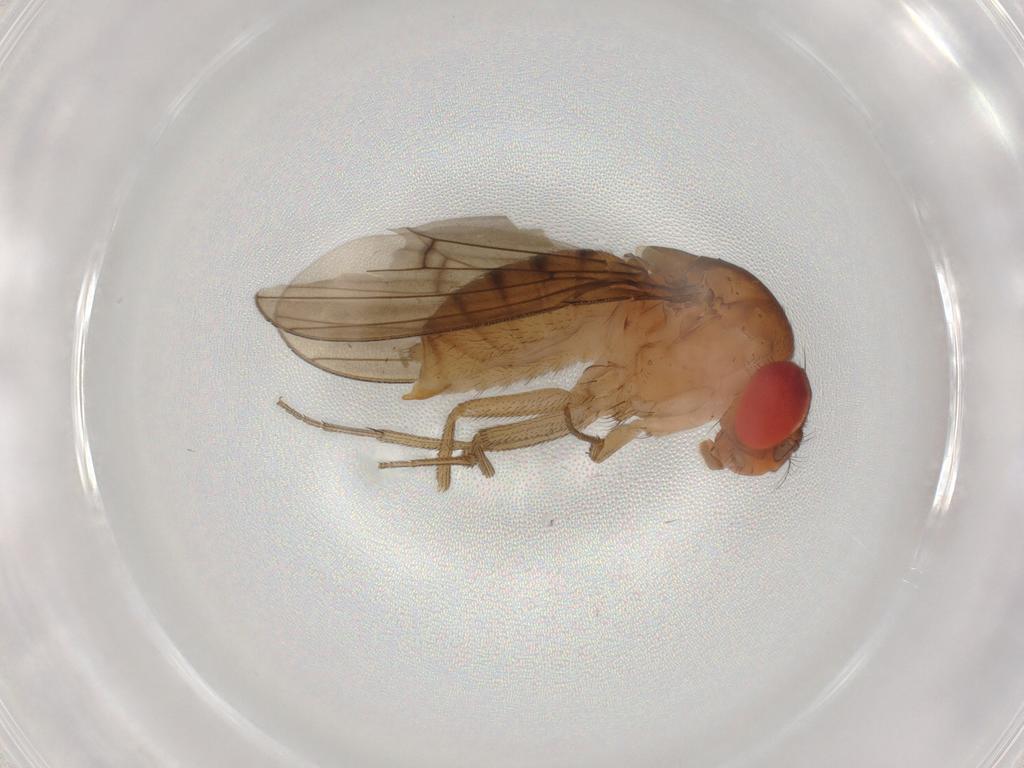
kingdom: Animalia
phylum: Arthropoda
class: Insecta
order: Diptera
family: Drosophilidae
